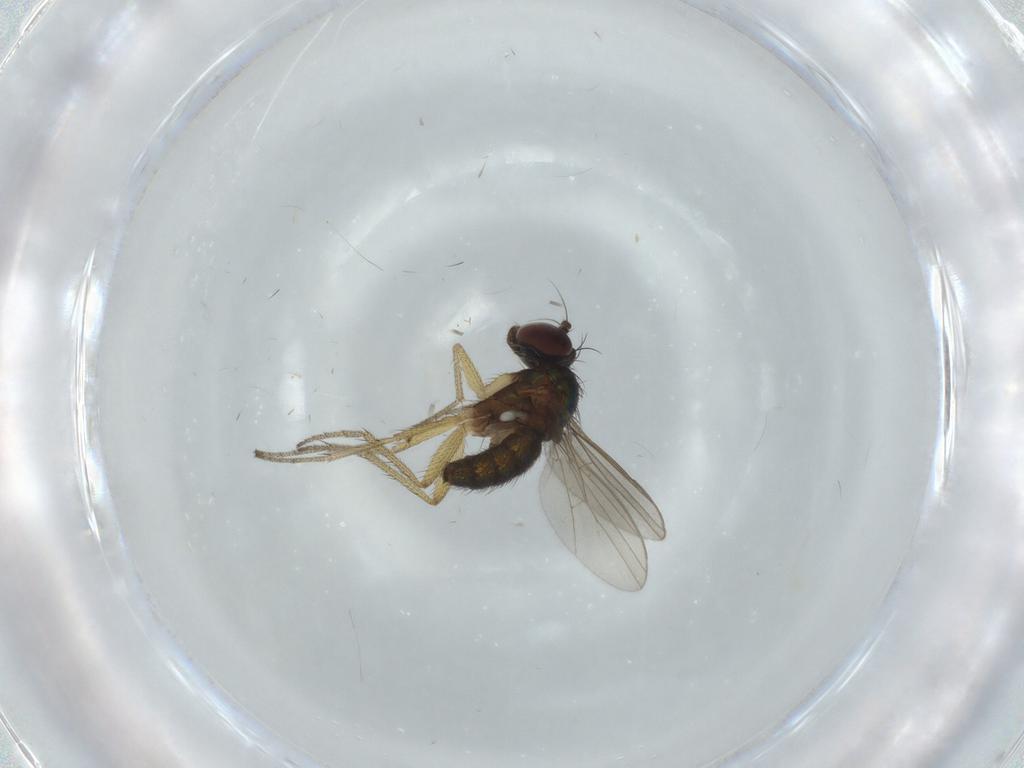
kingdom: Animalia
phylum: Arthropoda
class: Insecta
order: Diptera
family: Dolichopodidae
